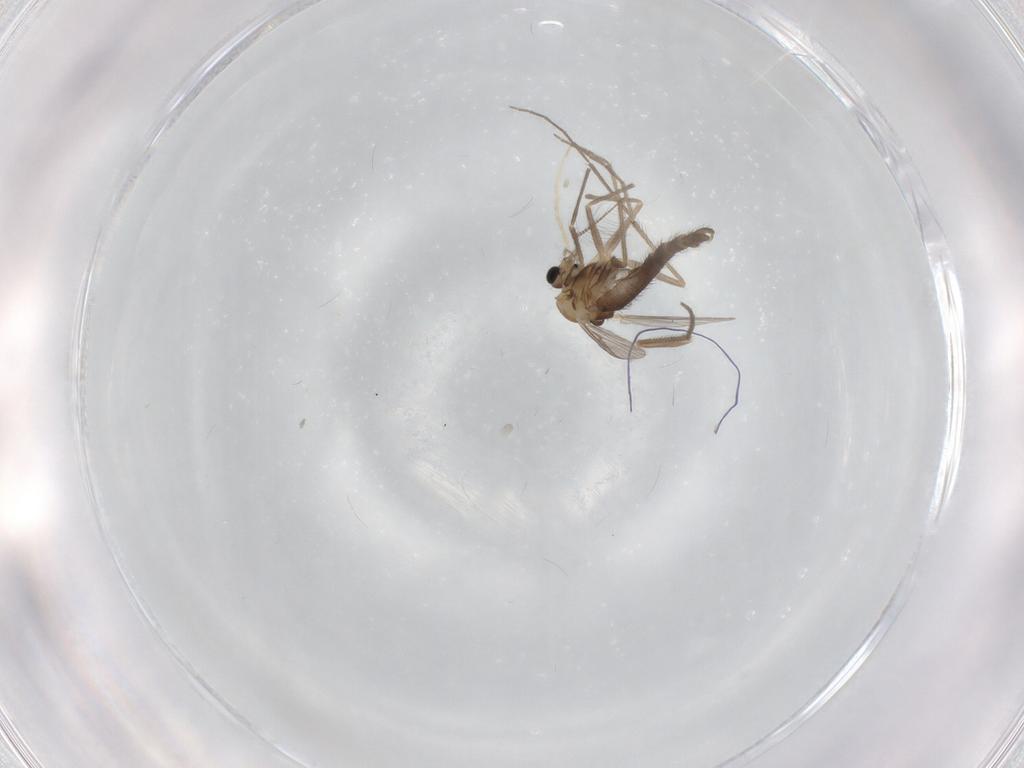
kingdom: Animalia
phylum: Arthropoda
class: Insecta
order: Diptera
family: Chironomidae
